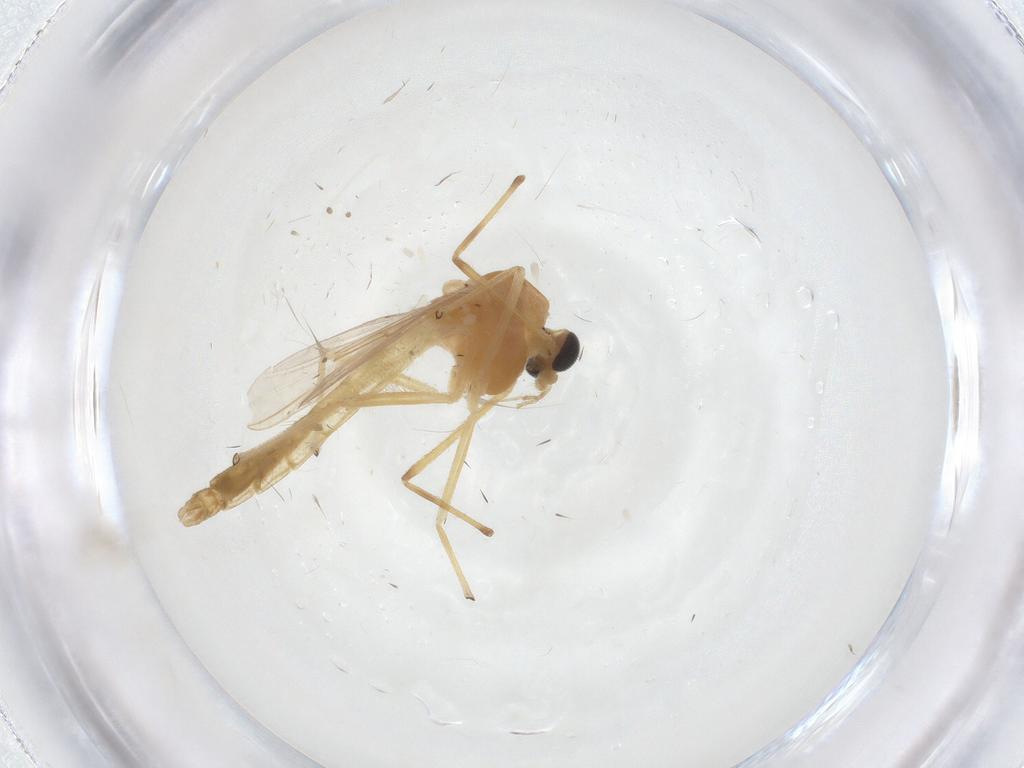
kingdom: Animalia
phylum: Arthropoda
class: Insecta
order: Diptera
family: Chironomidae
